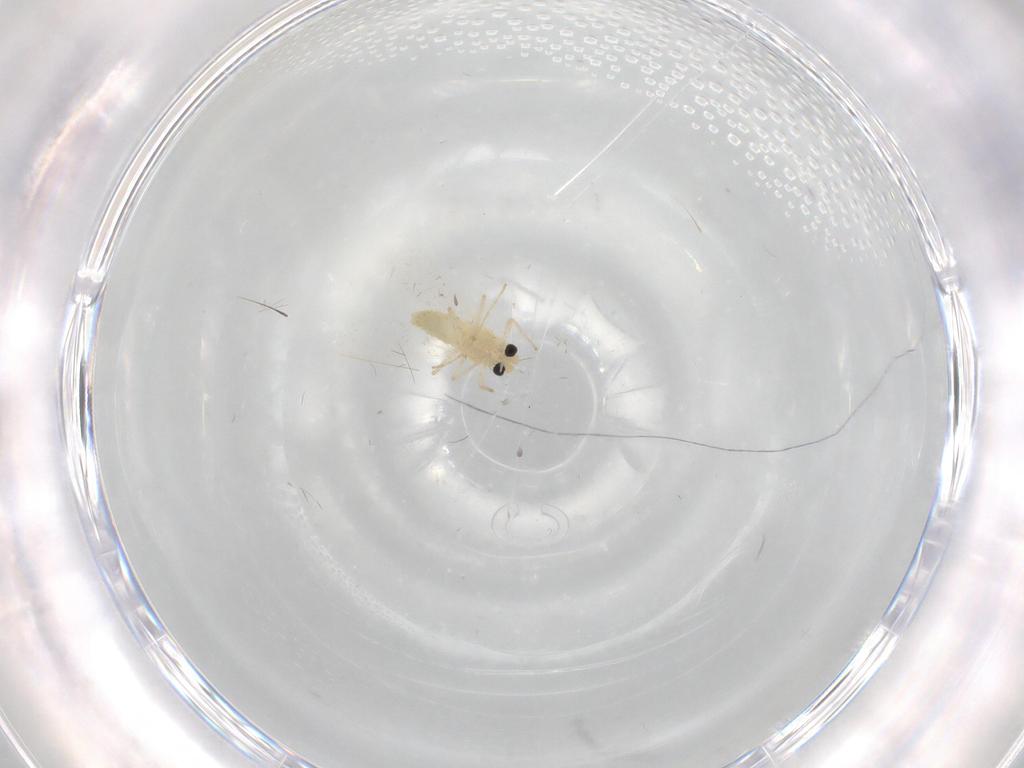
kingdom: Animalia
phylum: Arthropoda
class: Insecta
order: Diptera
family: Chironomidae
